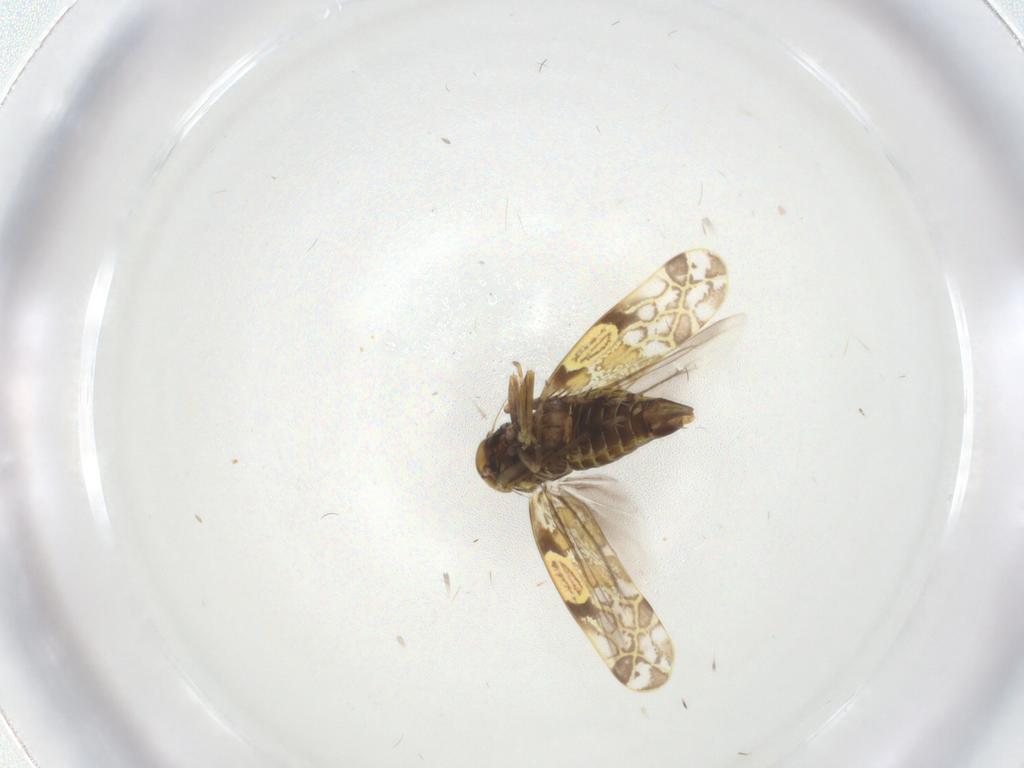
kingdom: Animalia
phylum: Arthropoda
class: Insecta
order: Hemiptera
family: Cicadellidae
